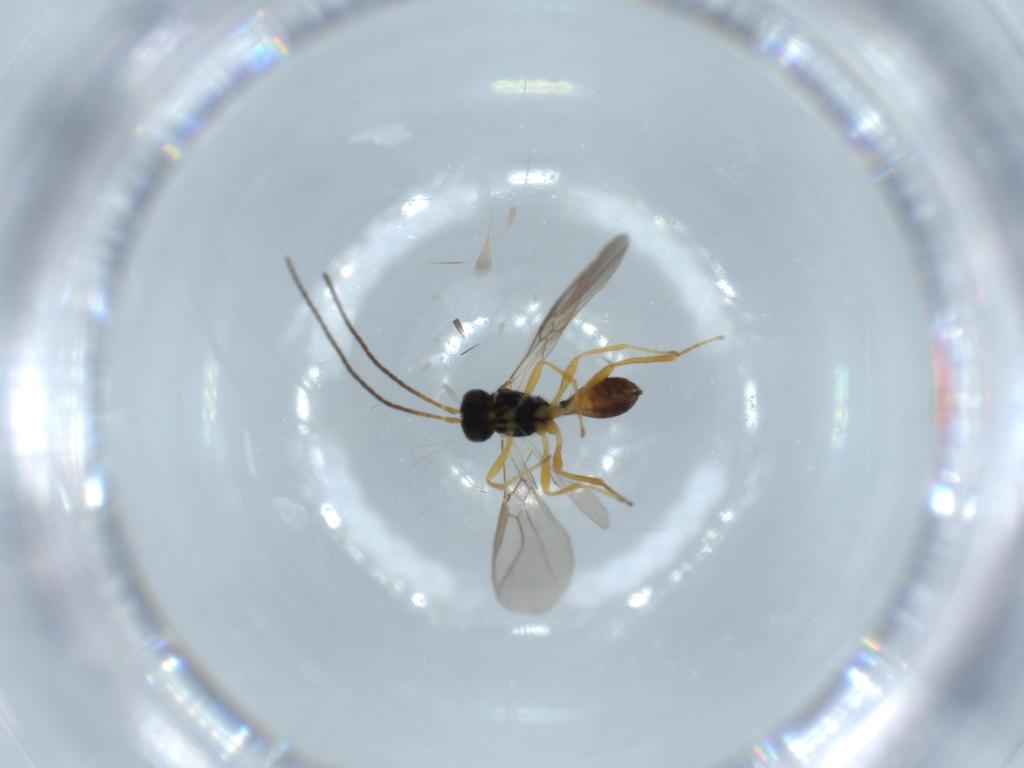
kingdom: Animalia
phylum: Arthropoda
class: Insecta
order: Hymenoptera
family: Braconidae
